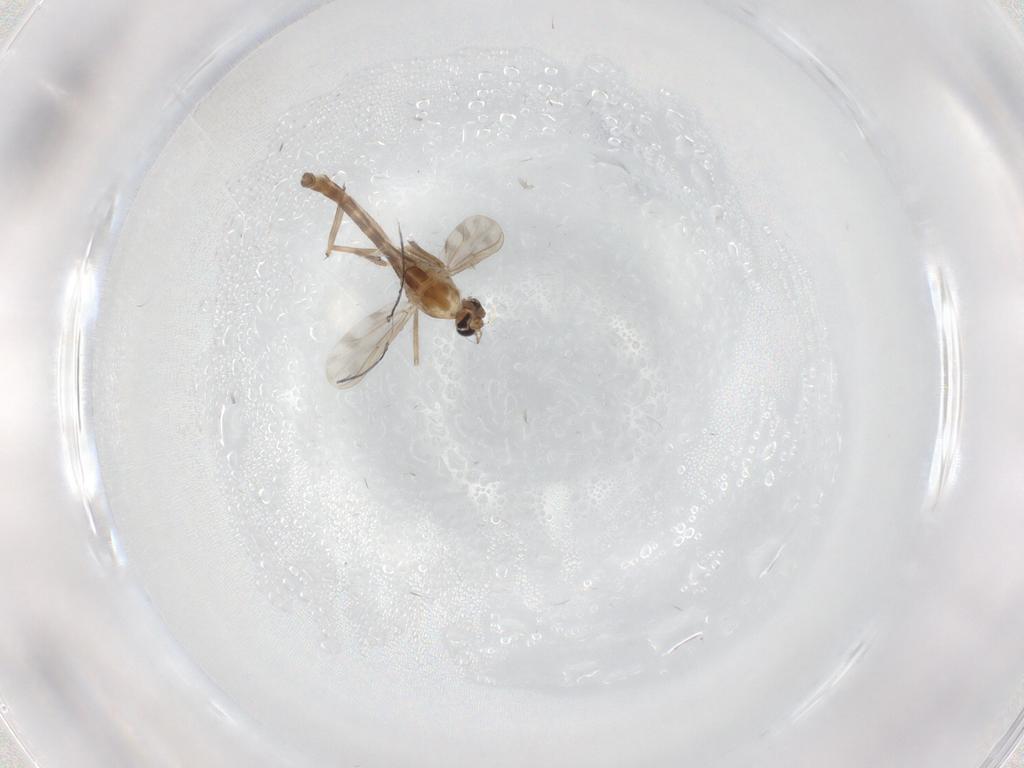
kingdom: Animalia
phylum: Arthropoda
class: Insecta
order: Diptera
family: Chironomidae
